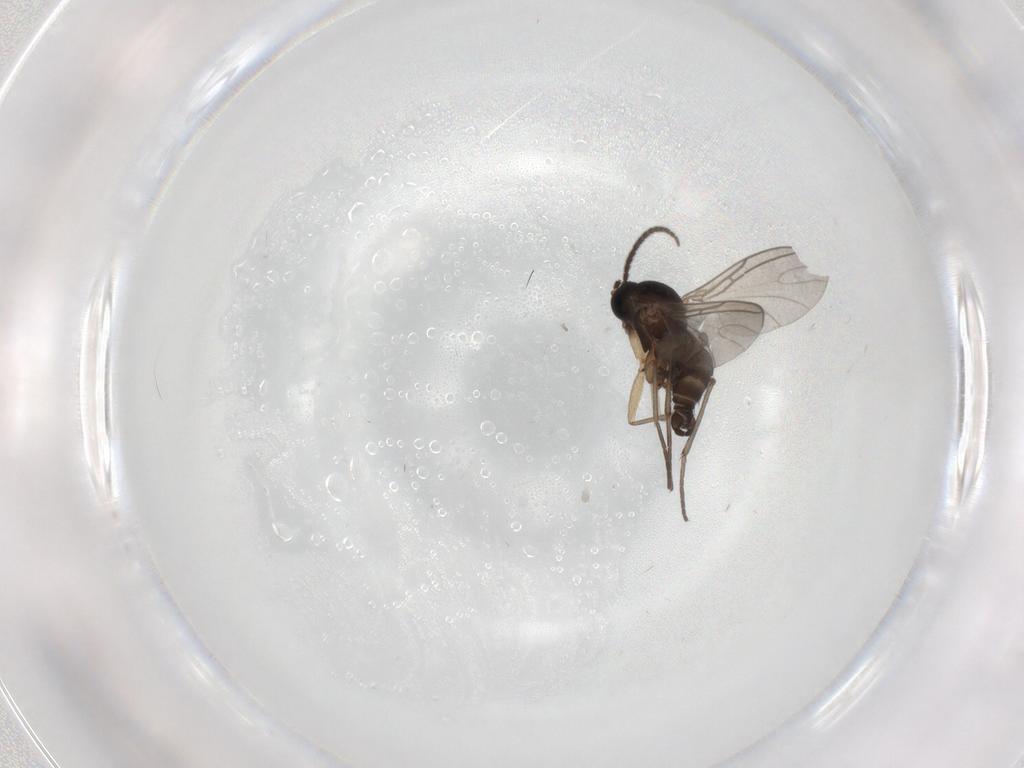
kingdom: Animalia
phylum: Arthropoda
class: Insecta
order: Diptera
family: Sciaridae
